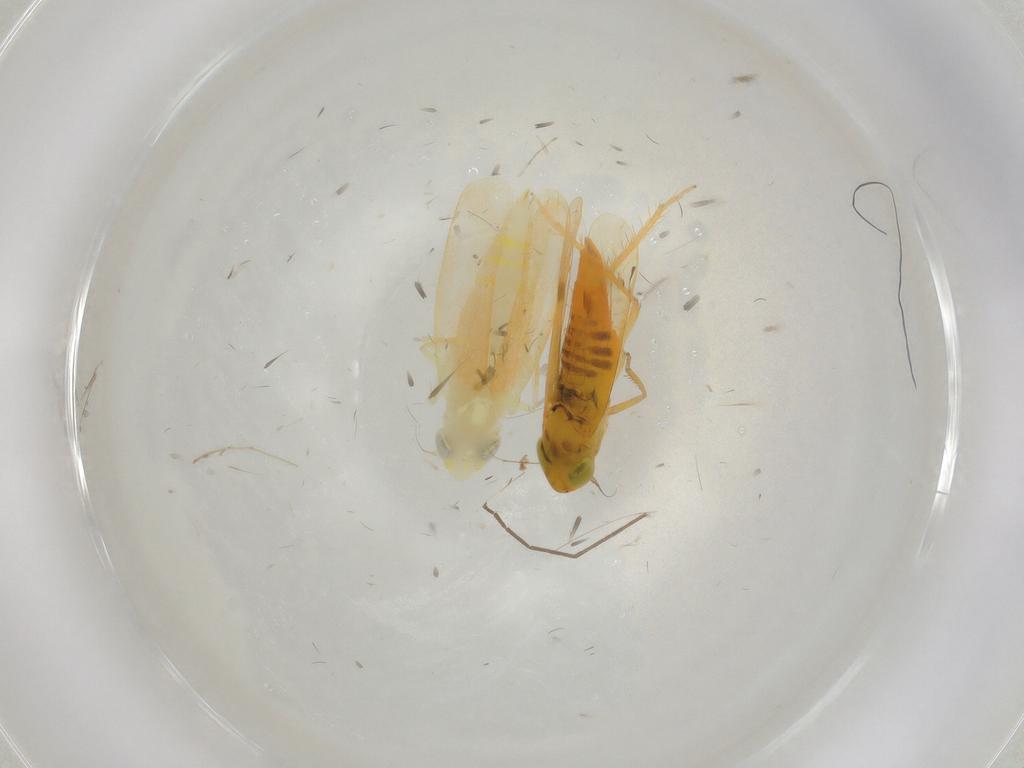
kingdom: Animalia
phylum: Arthropoda
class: Insecta
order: Hemiptera
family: Cicadellidae
